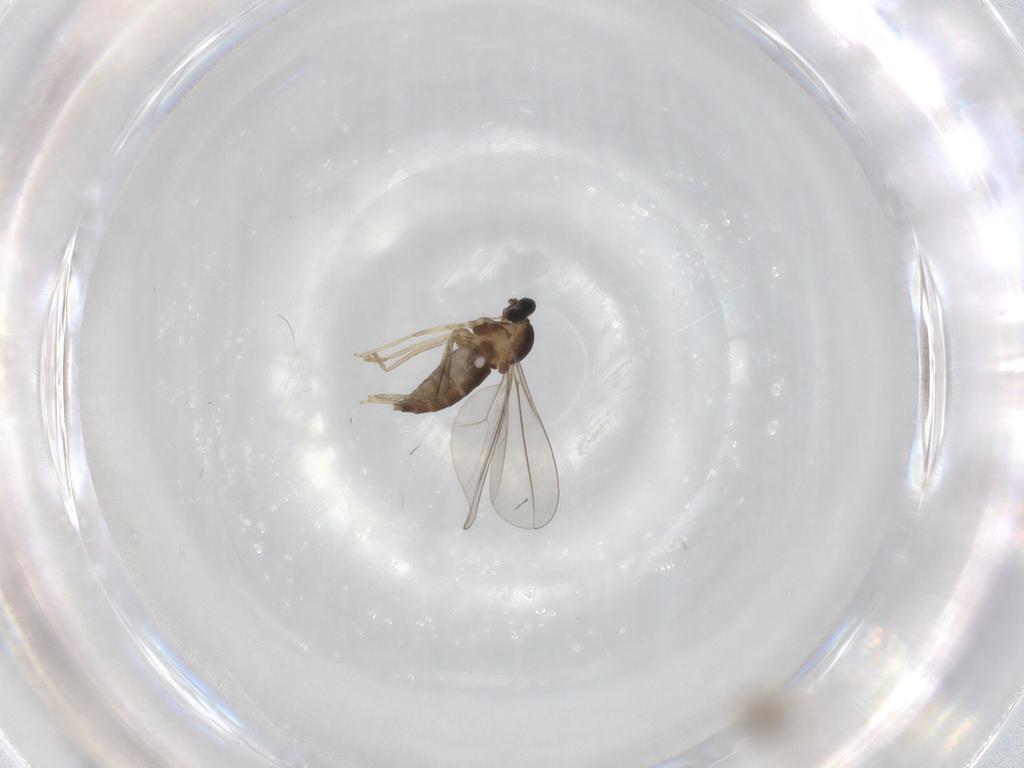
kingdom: Animalia
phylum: Arthropoda
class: Insecta
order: Diptera
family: Cecidomyiidae
